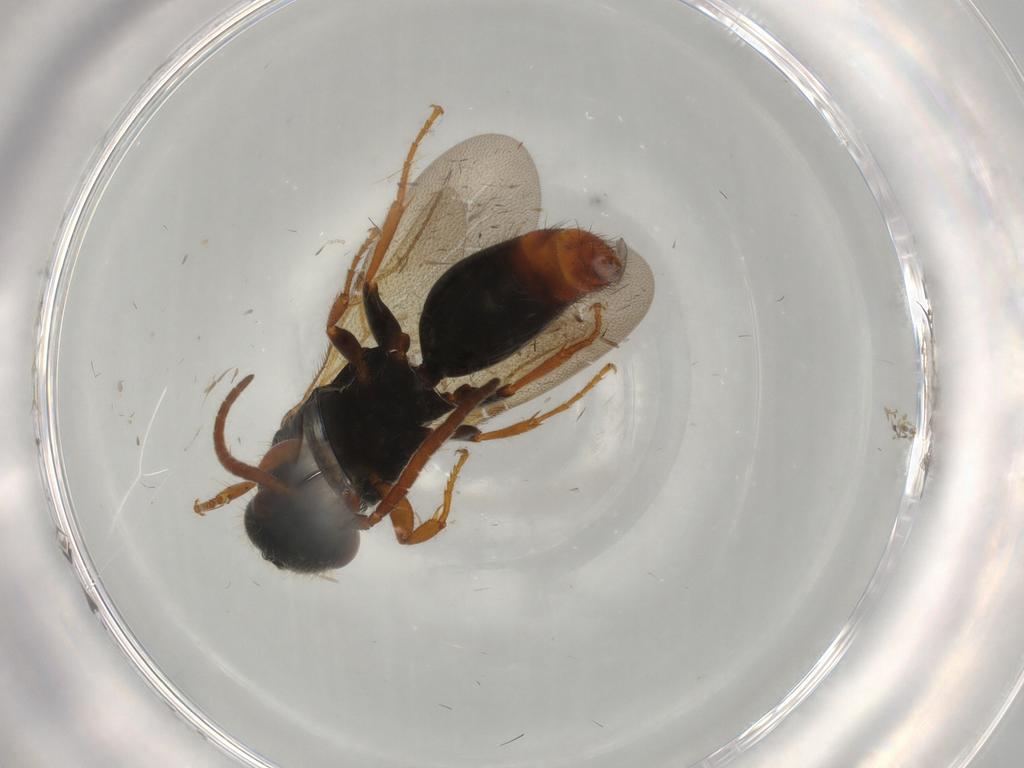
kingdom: Animalia
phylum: Arthropoda
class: Insecta
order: Hymenoptera
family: Bethylidae
